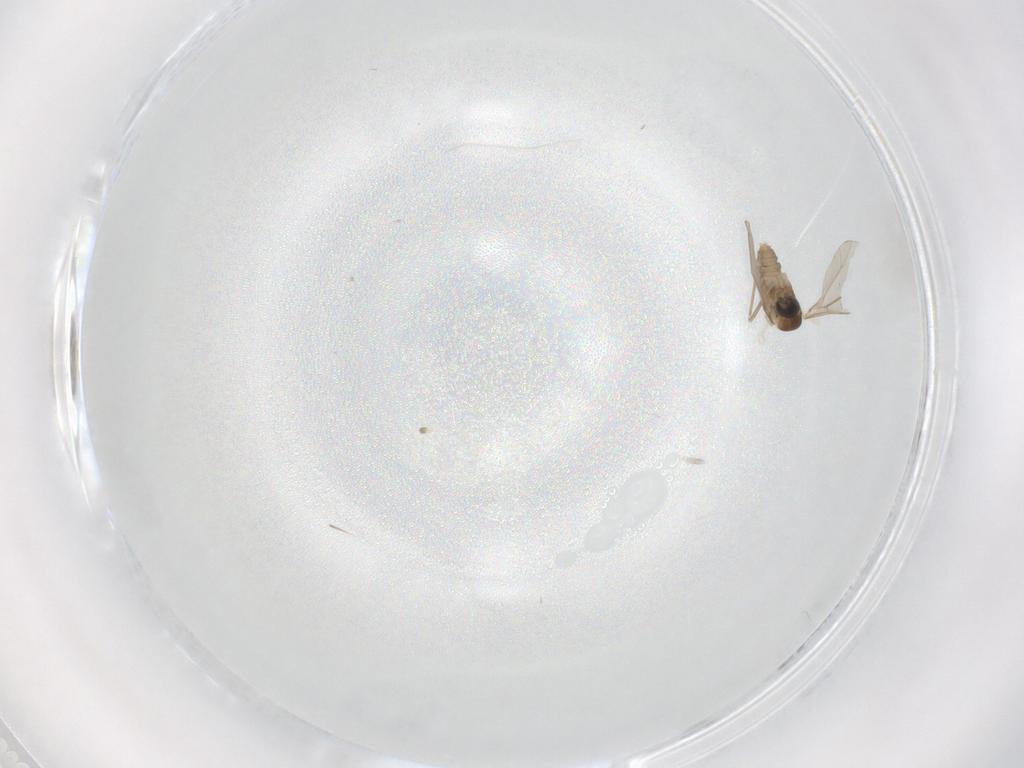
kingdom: Animalia
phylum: Arthropoda
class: Insecta
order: Diptera
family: Cecidomyiidae
